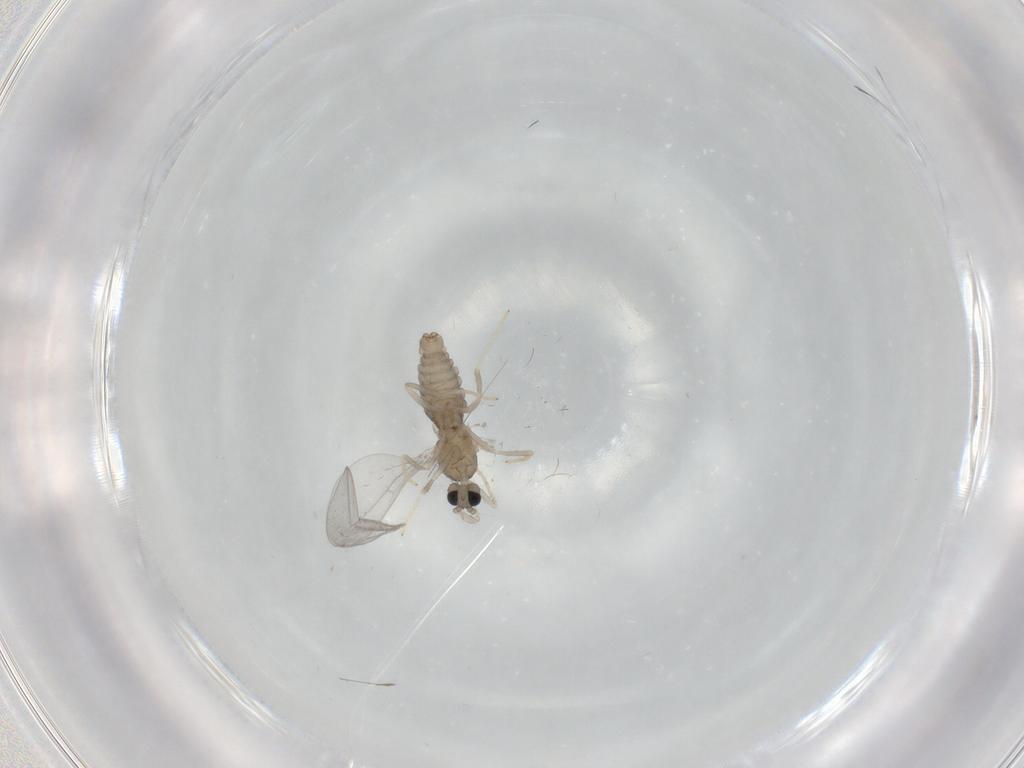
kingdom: Animalia
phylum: Arthropoda
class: Insecta
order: Diptera
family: Cecidomyiidae
